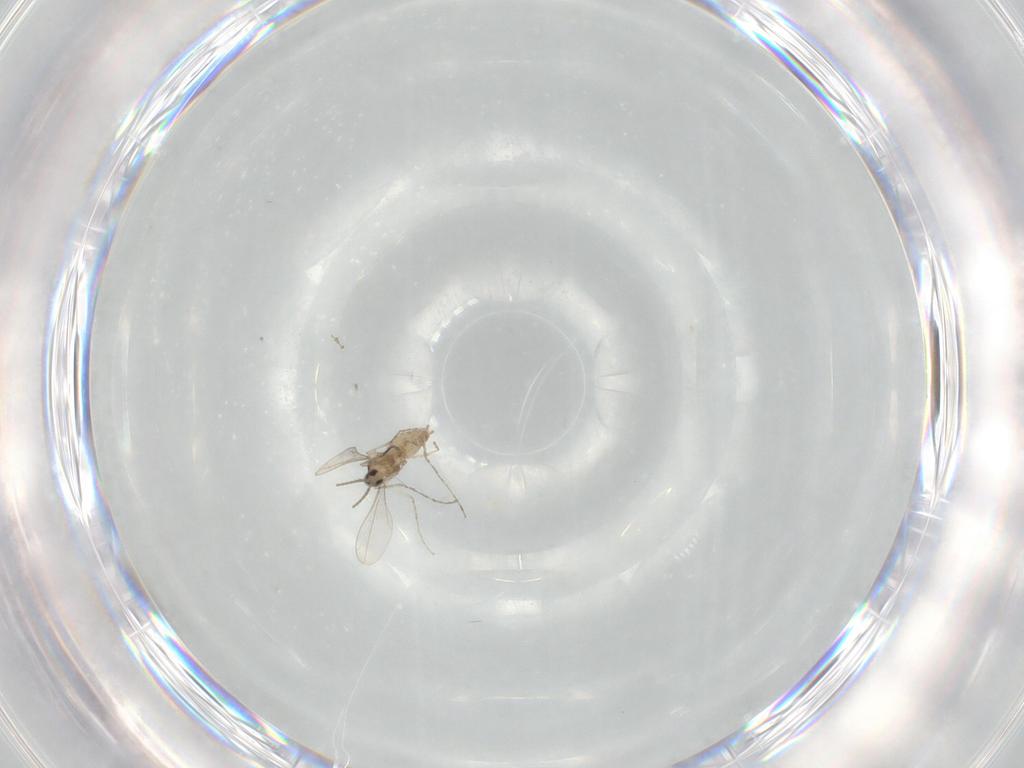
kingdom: Animalia
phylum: Arthropoda
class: Insecta
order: Diptera
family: Cecidomyiidae
